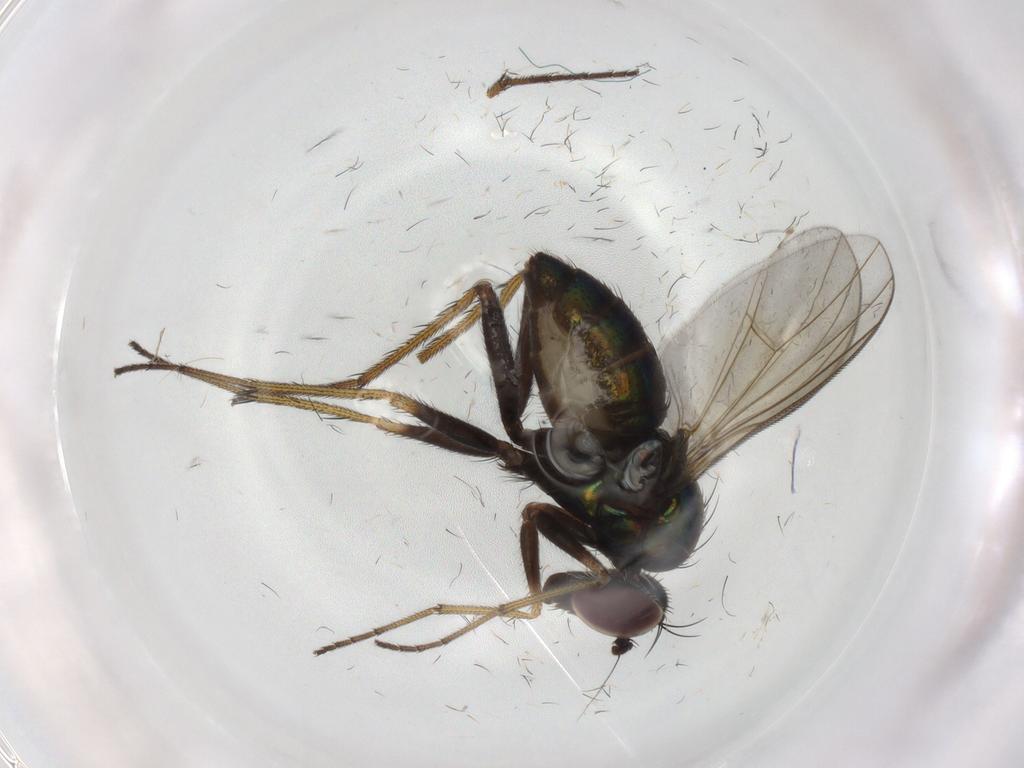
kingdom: Animalia
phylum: Arthropoda
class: Insecta
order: Diptera
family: Dolichopodidae
